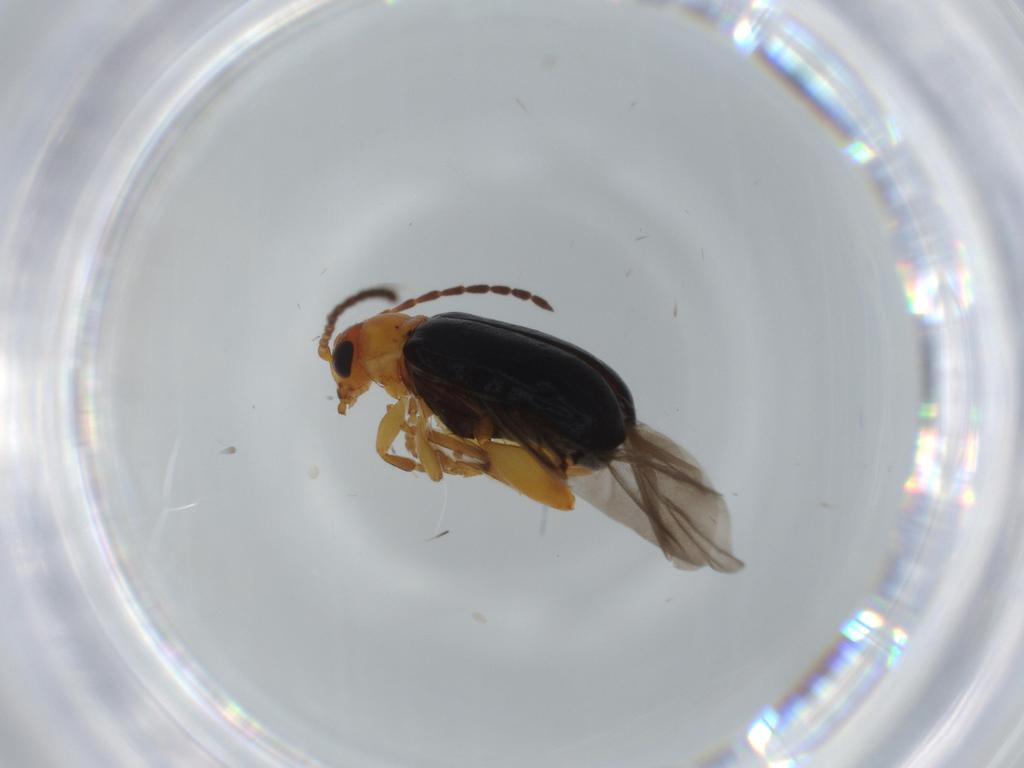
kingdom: Animalia
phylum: Arthropoda
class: Insecta
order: Coleoptera
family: Chrysomelidae
